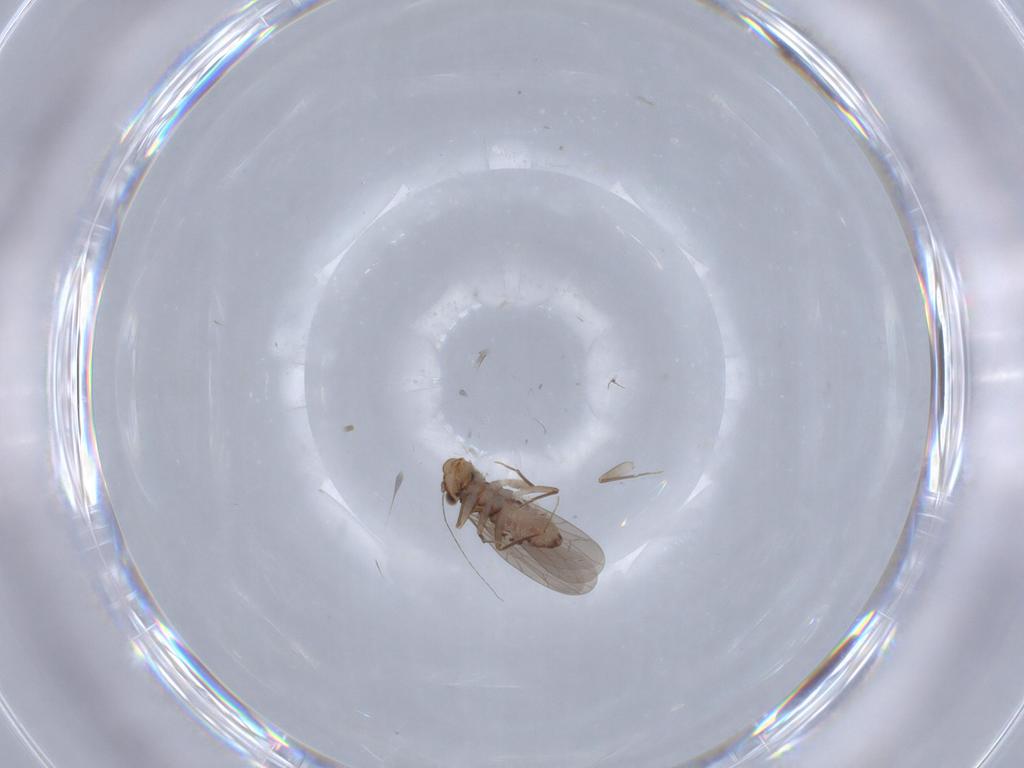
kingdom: Animalia
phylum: Arthropoda
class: Insecta
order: Psocodea
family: Lepidopsocidae
